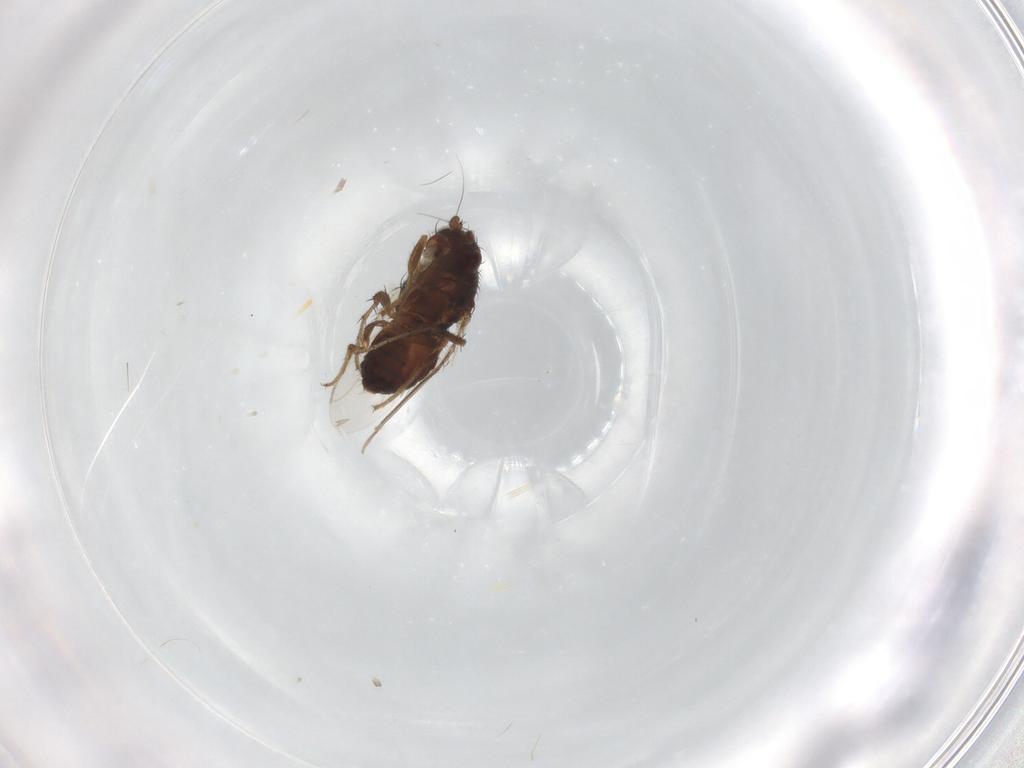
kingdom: Animalia
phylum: Arthropoda
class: Insecta
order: Diptera
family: Sphaeroceridae
